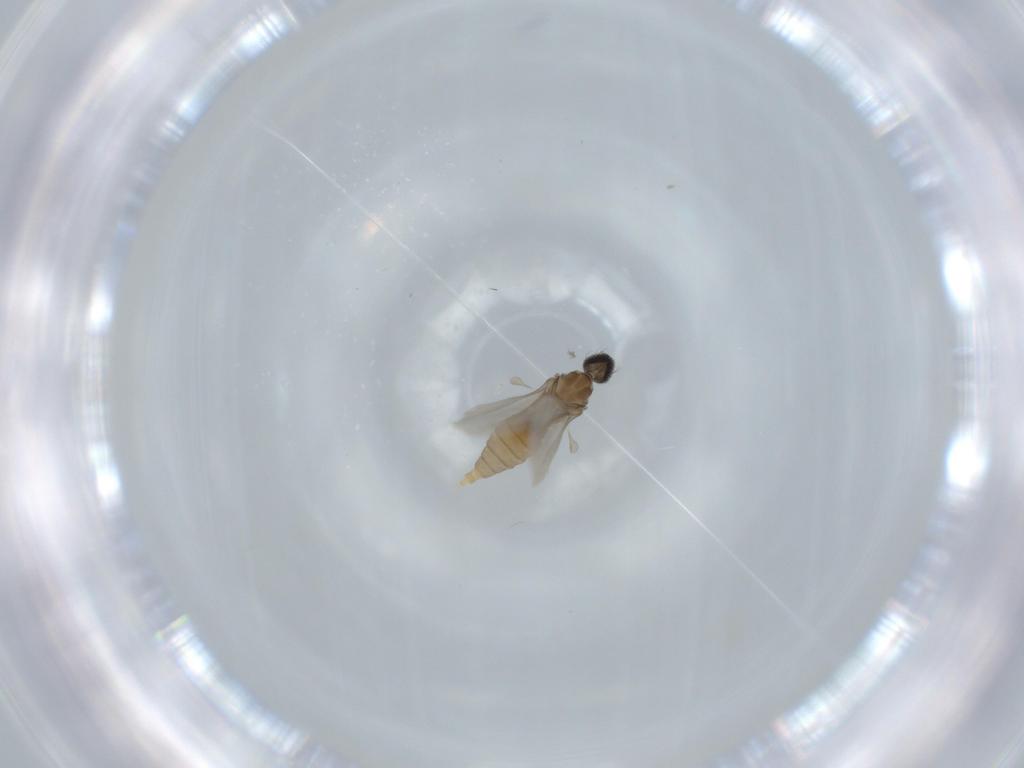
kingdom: Animalia
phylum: Arthropoda
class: Insecta
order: Diptera
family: Cecidomyiidae
